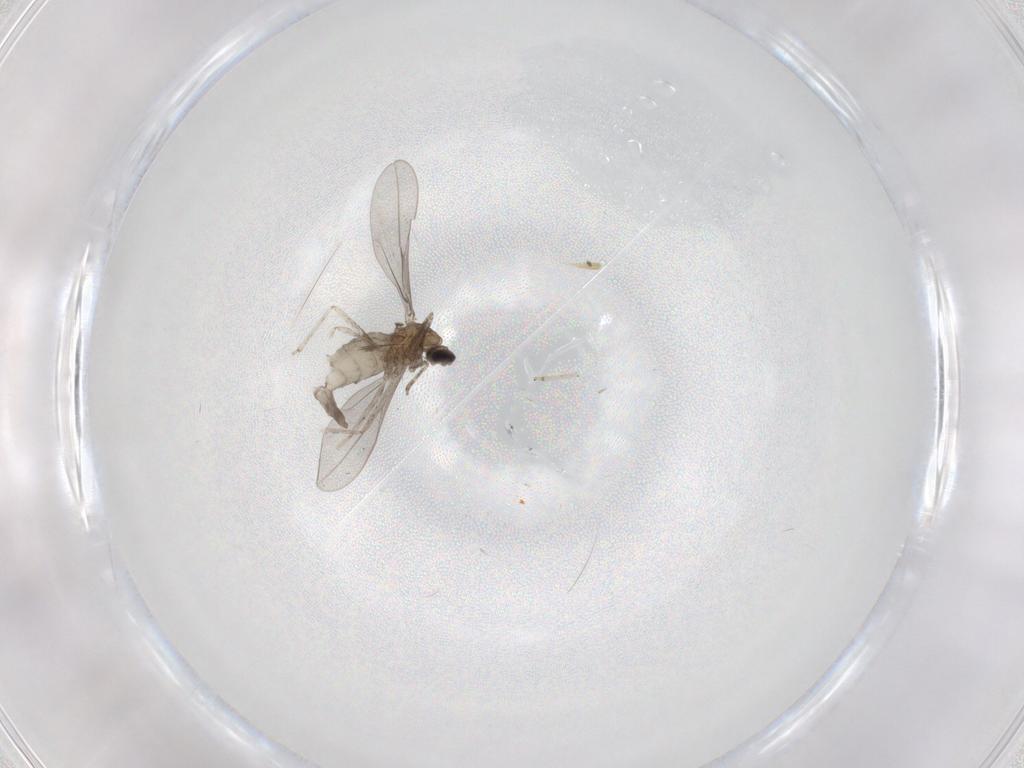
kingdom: Animalia
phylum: Arthropoda
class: Insecta
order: Diptera
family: Cecidomyiidae
